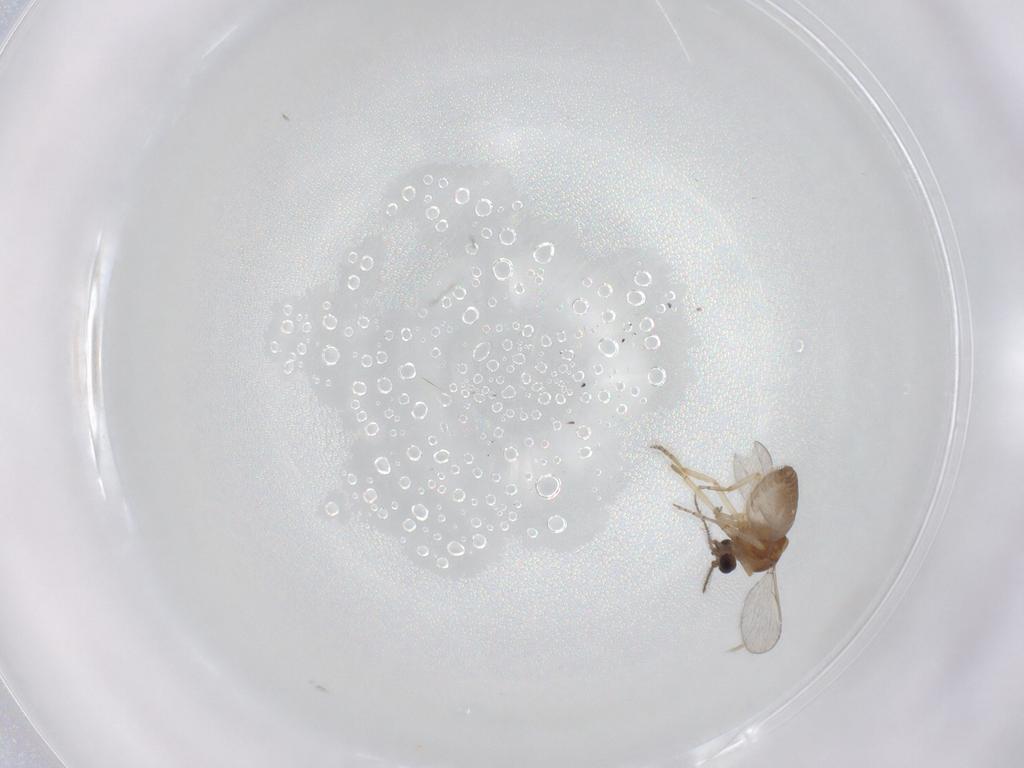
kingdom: Animalia
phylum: Arthropoda
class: Insecta
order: Diptera
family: Ceratopogonidae
